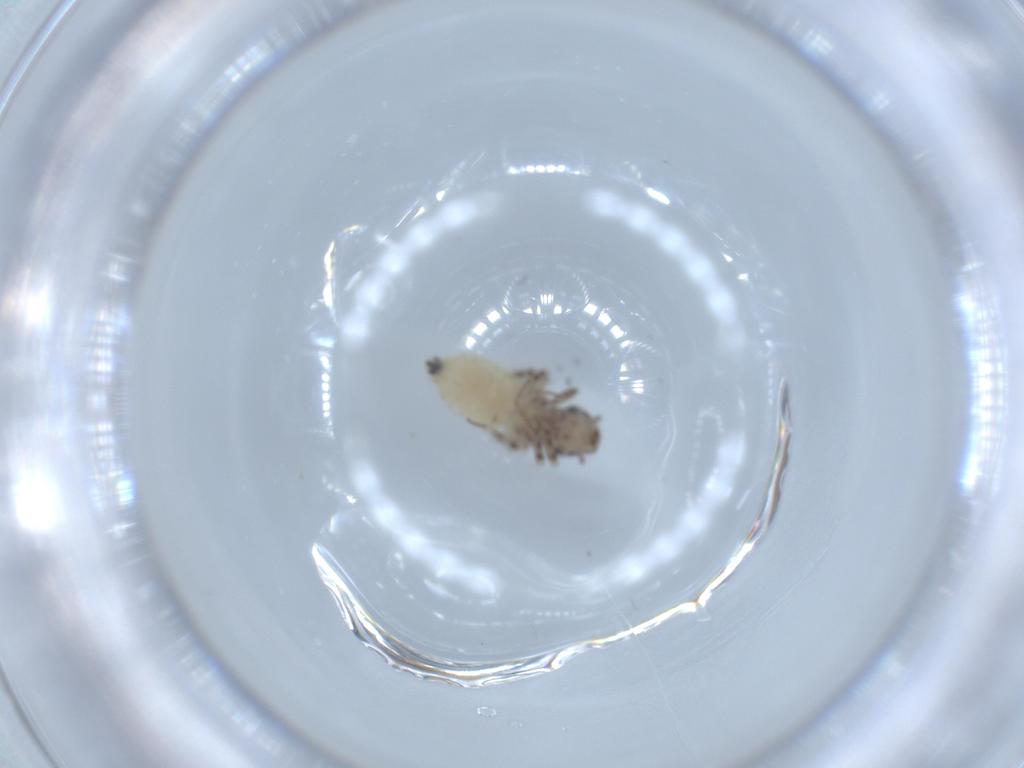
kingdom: Animalia
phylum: Arthropoda
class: Insecta
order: Psocodea
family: Lepidopsocidae
